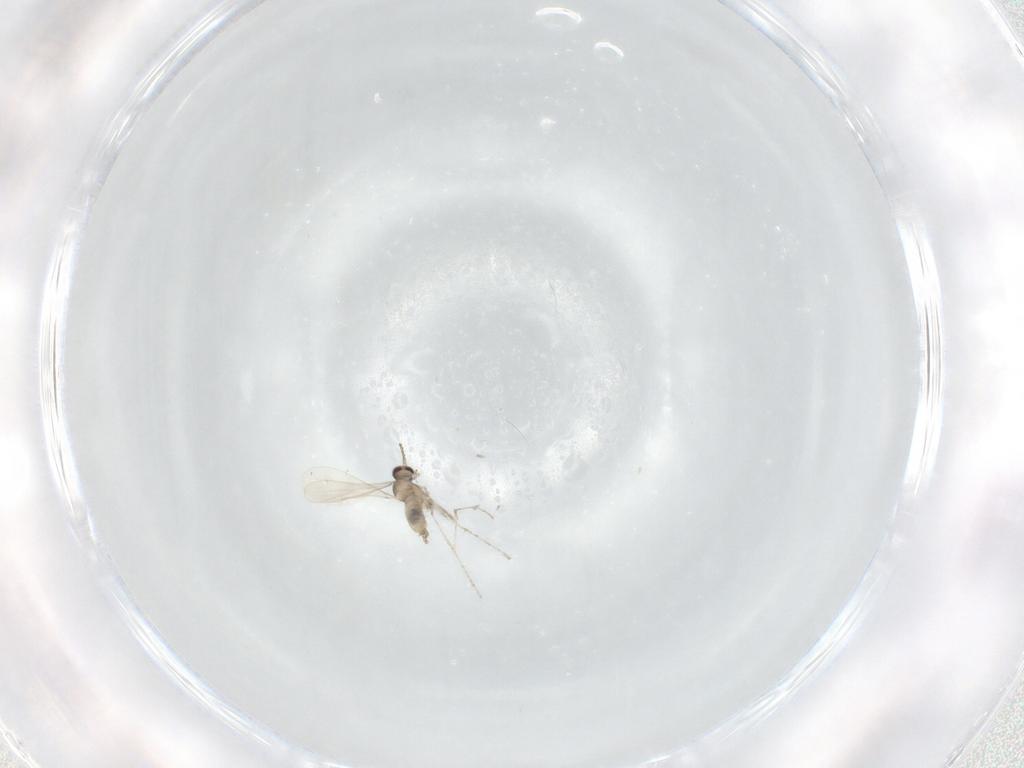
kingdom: Animalia
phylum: Arthropoda
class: Insecta
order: Diptera
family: Cecidomyiidae
